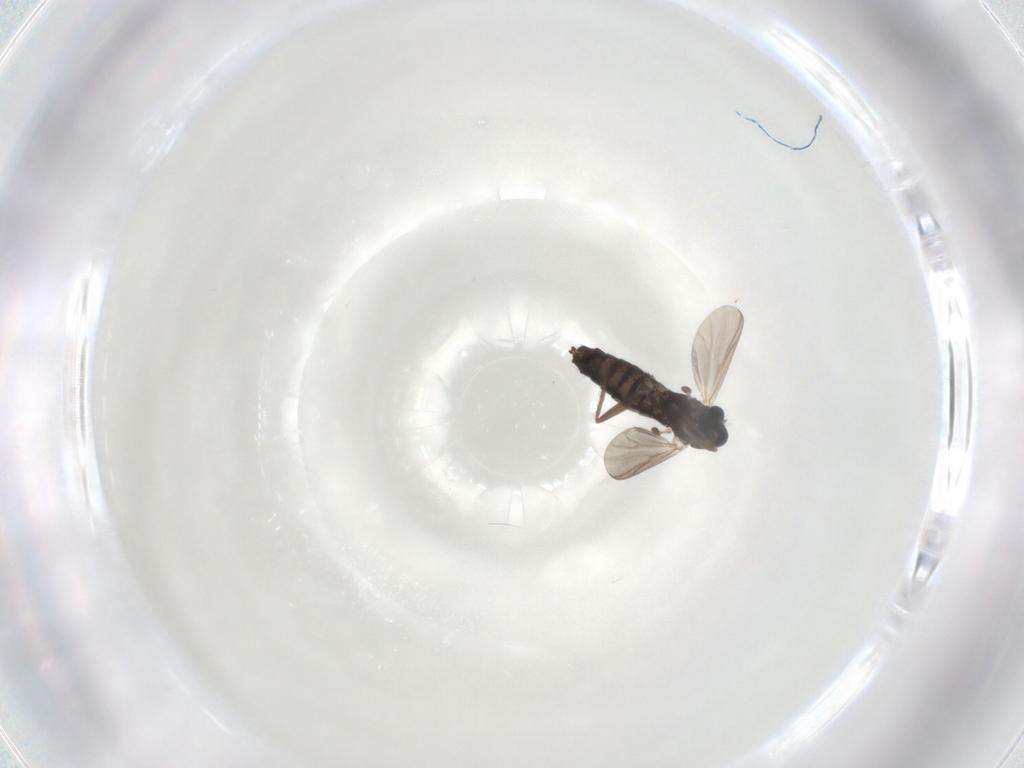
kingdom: Animalia
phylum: Arthropoda
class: Insecta
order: Diptera
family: Chironomidae
